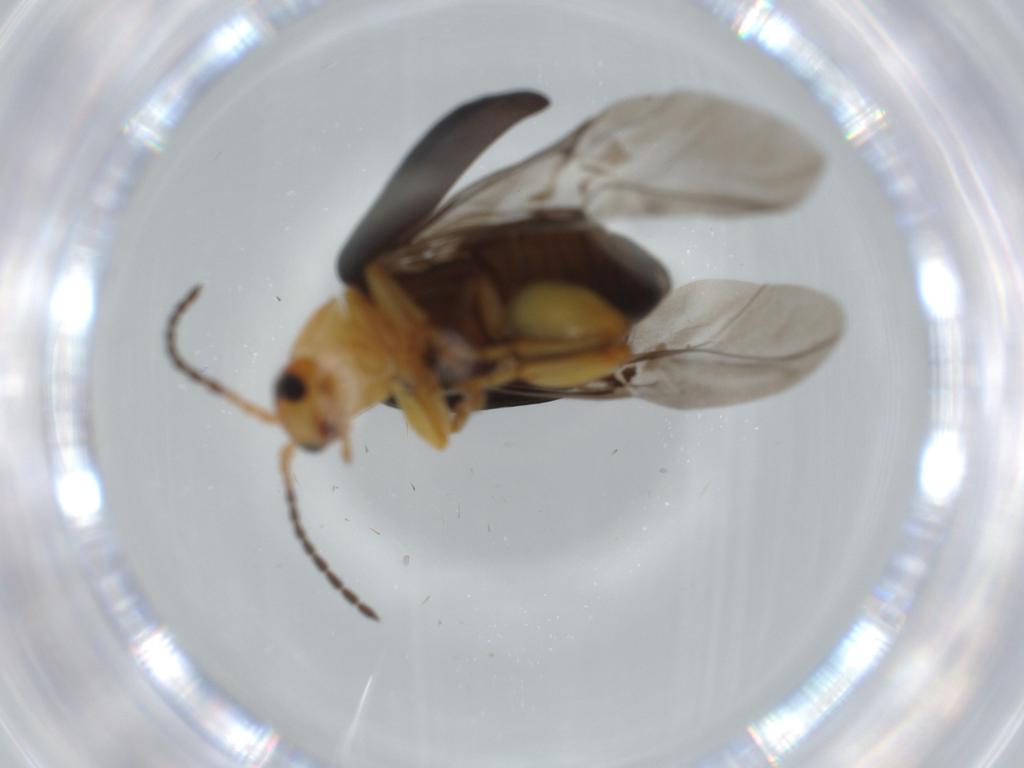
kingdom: Animalia
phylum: Arthropoda
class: Insecta
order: Coleoptera
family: Chrysomelidae
